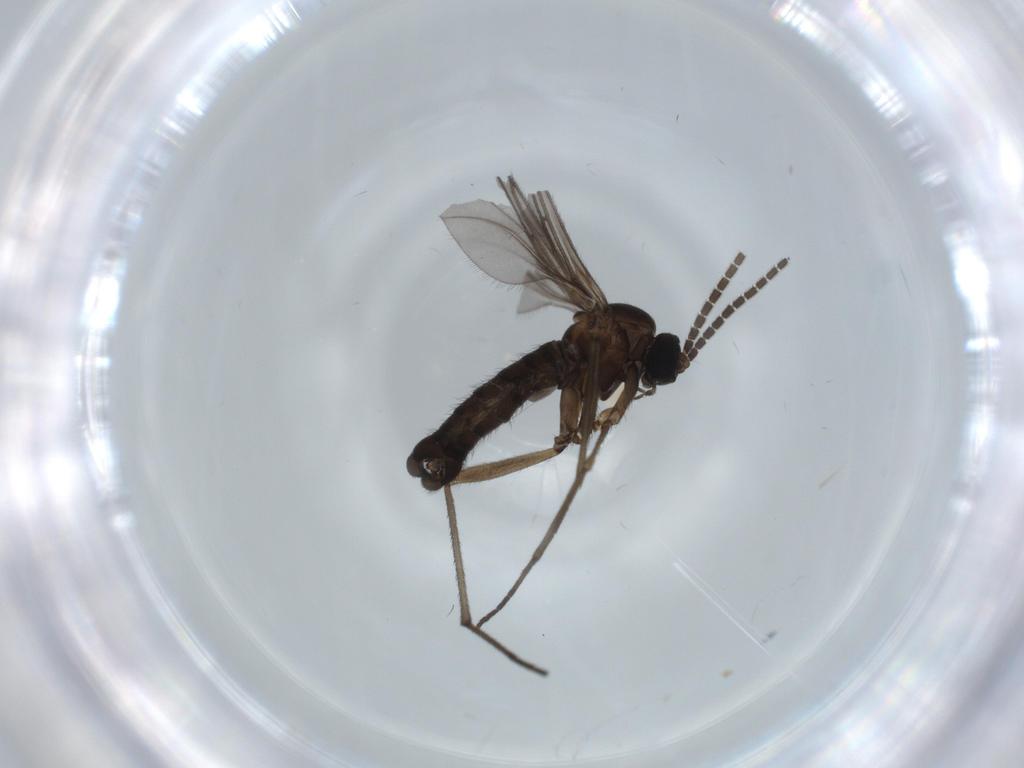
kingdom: Animalia
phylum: Arthropoda
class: Insecta
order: Diptera
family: Sciaridae
